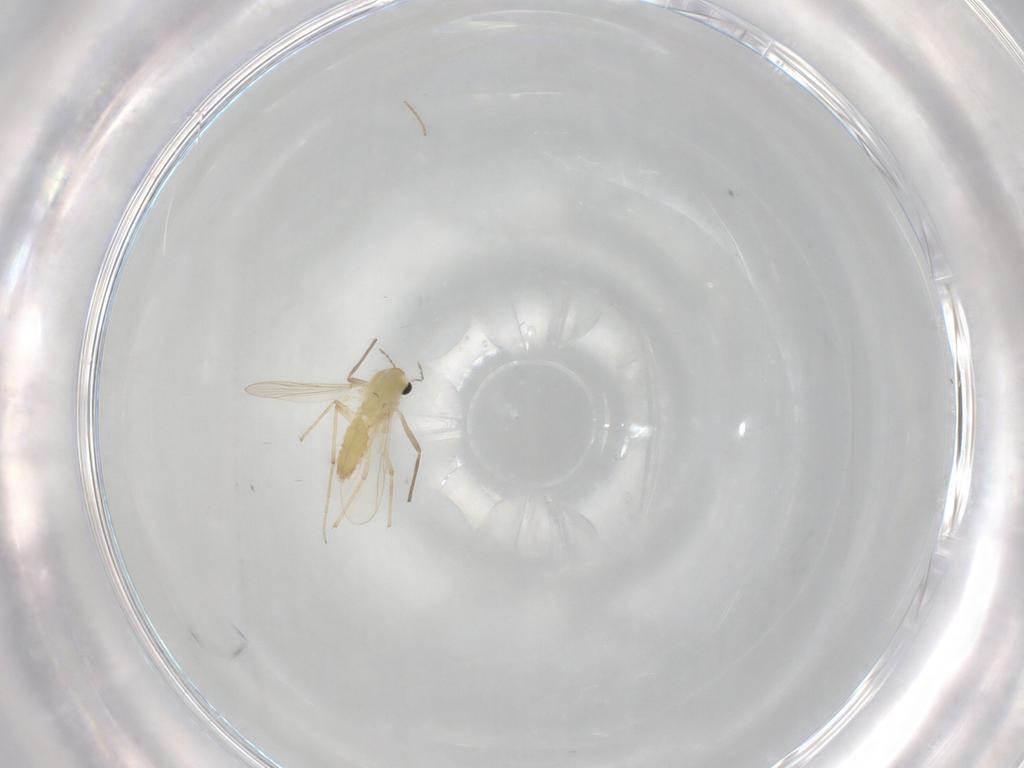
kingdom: Animalia
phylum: Arthropoda
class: Insecta
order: Diptera
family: Chironomidae
